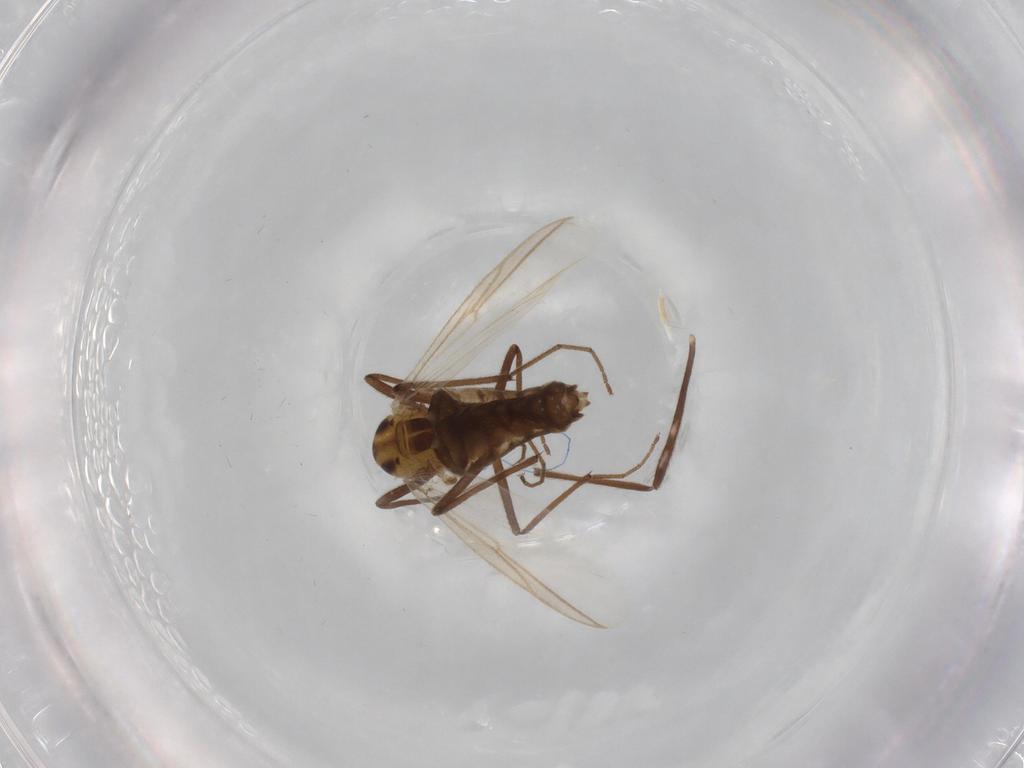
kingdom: Animalia
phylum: Arthropoda
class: Insecta
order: Diptera
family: Chironomidae
